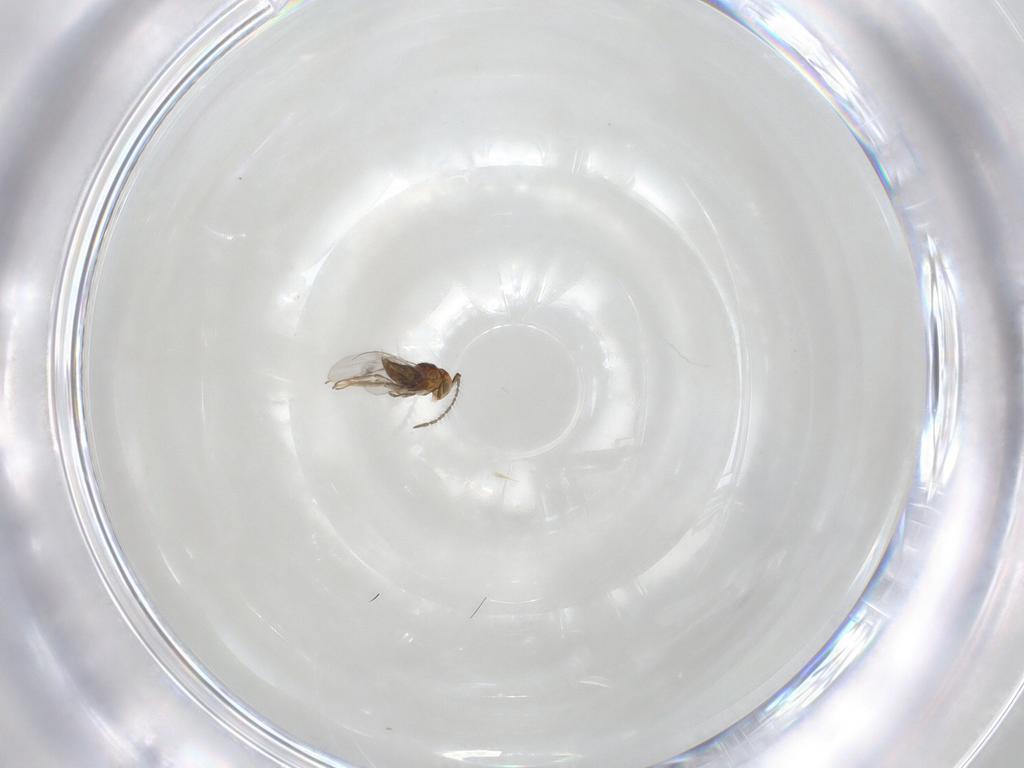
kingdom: Animalia
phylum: Arthropoda
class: Insecta
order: Hymenoptera
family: Encyrtidae
